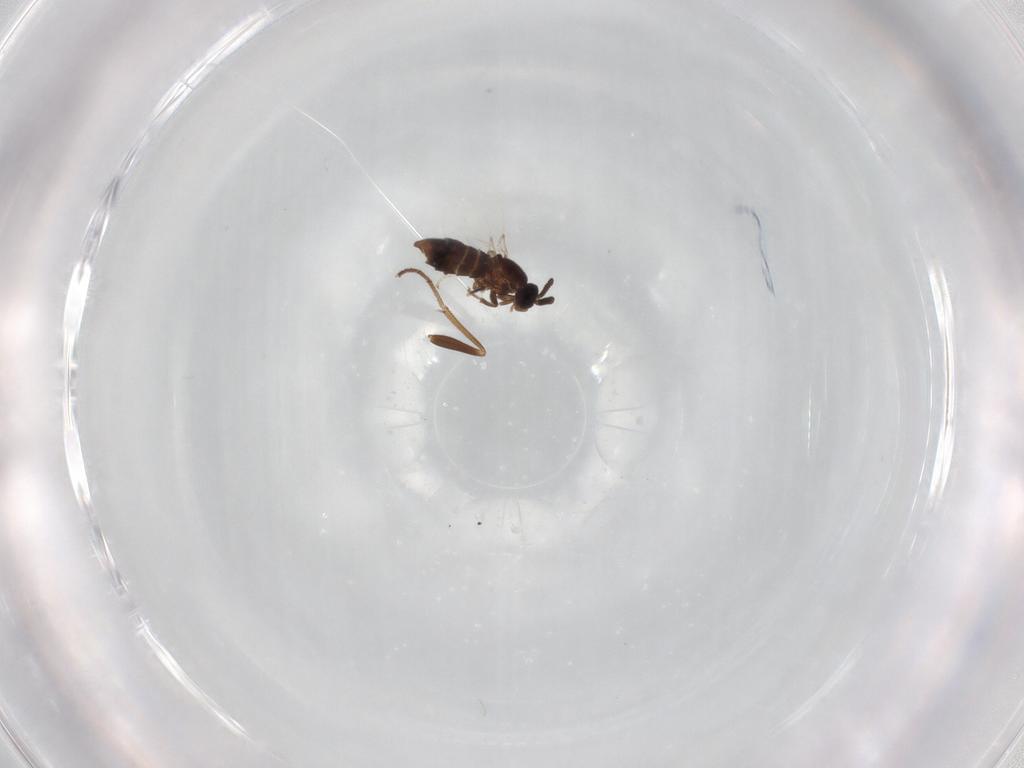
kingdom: Animalia
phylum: Arthropoda
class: Insecta
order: Diptera
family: Dolichopodidae
